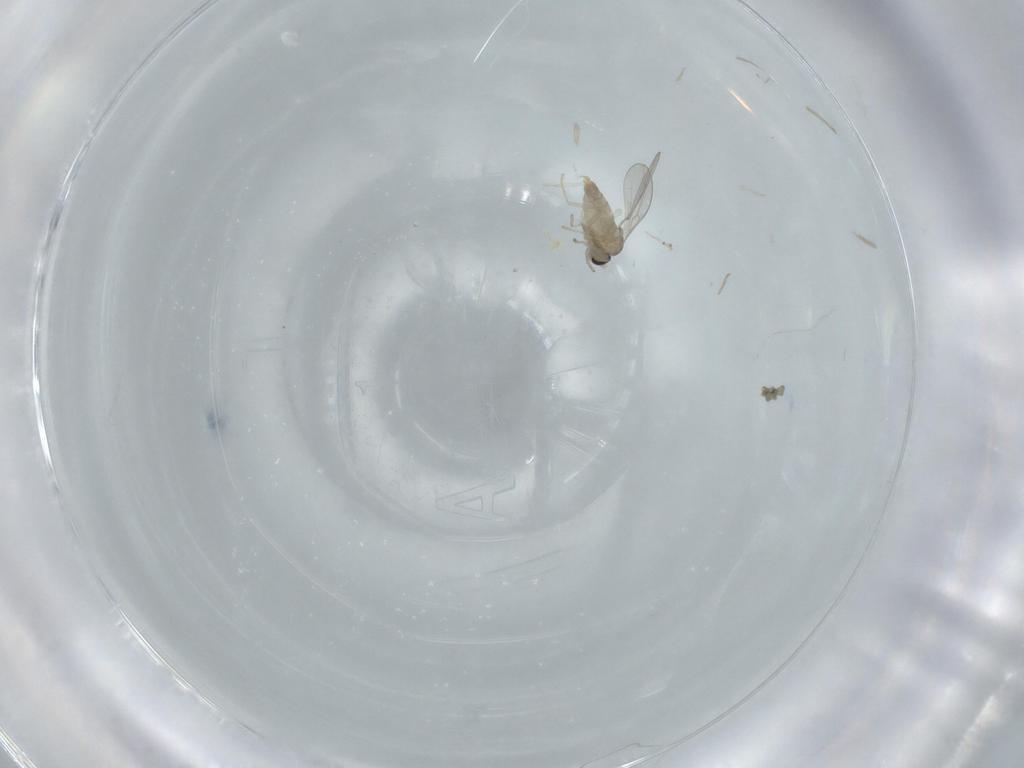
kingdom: Animalia
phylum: Arthropoda
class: Insecta
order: Diptera
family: Cecidomyiidae
